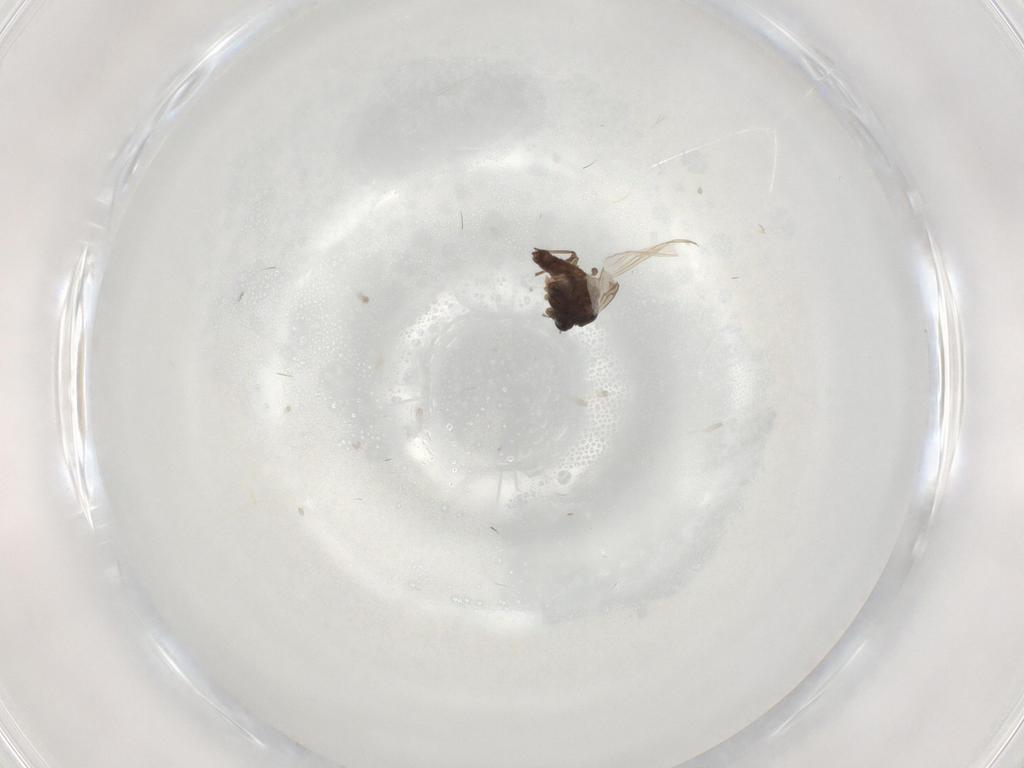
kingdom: Animalia
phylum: Arthropoda
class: Insecta
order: Diptera
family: Chironomidae
